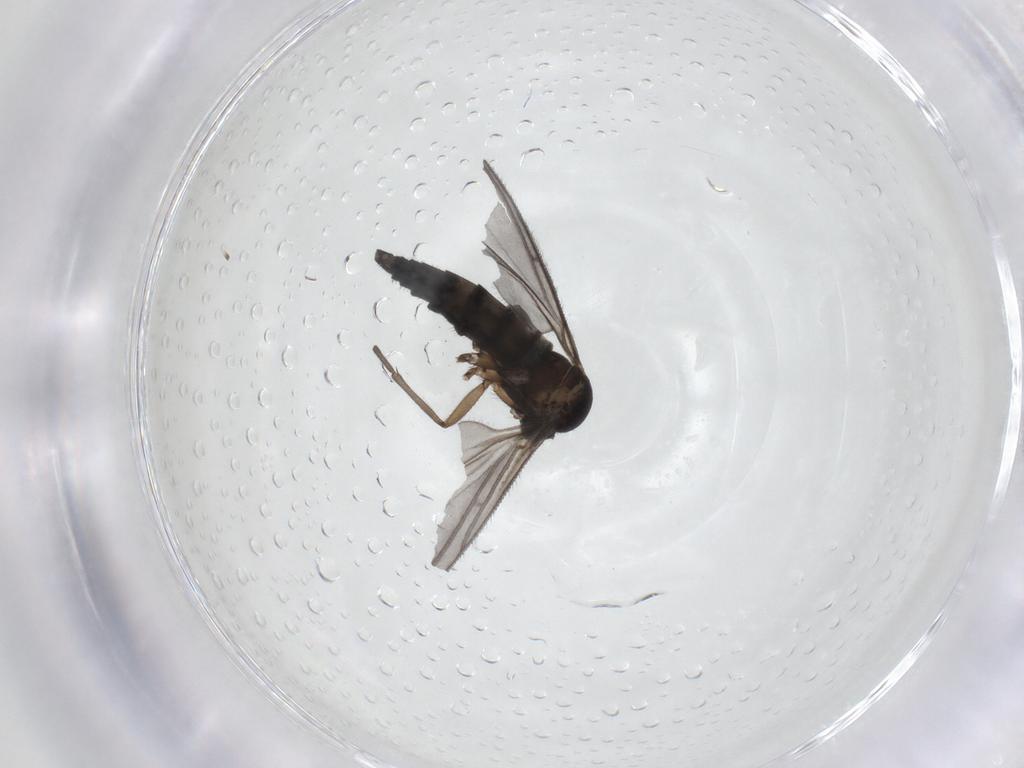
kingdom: Animalia
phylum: Arthropoda
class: Insecta
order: Diptera
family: Sciaridae
